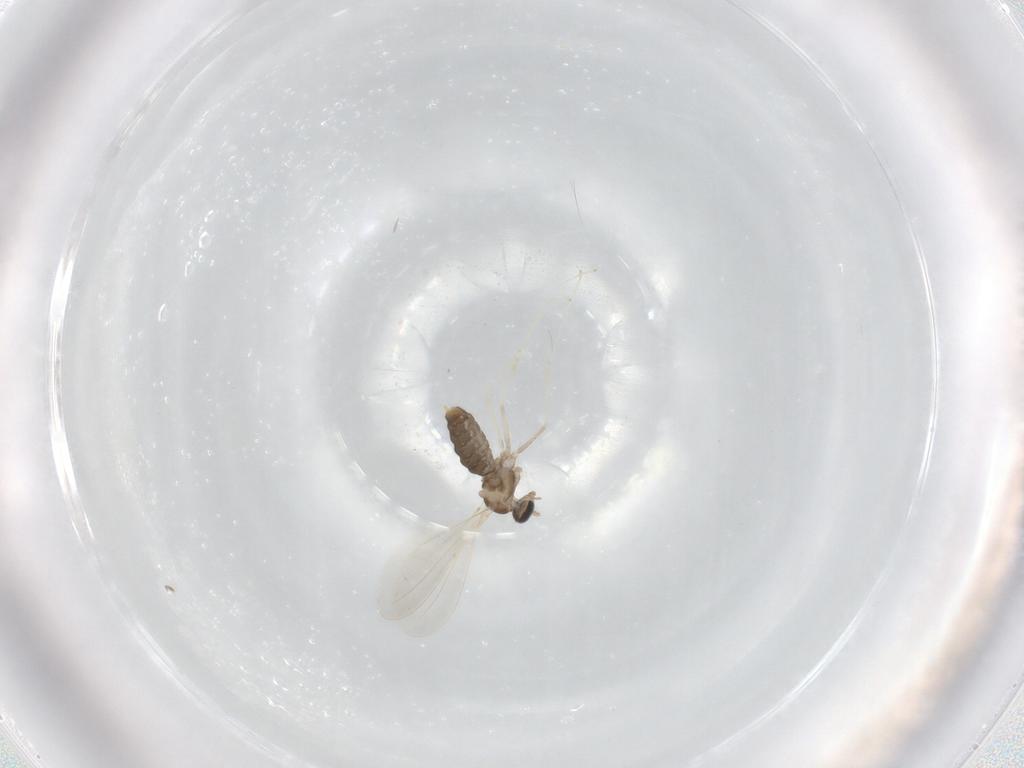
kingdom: Animalia
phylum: Arthropoda
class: Insecta
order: Diptera
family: Cecidomyiidae
